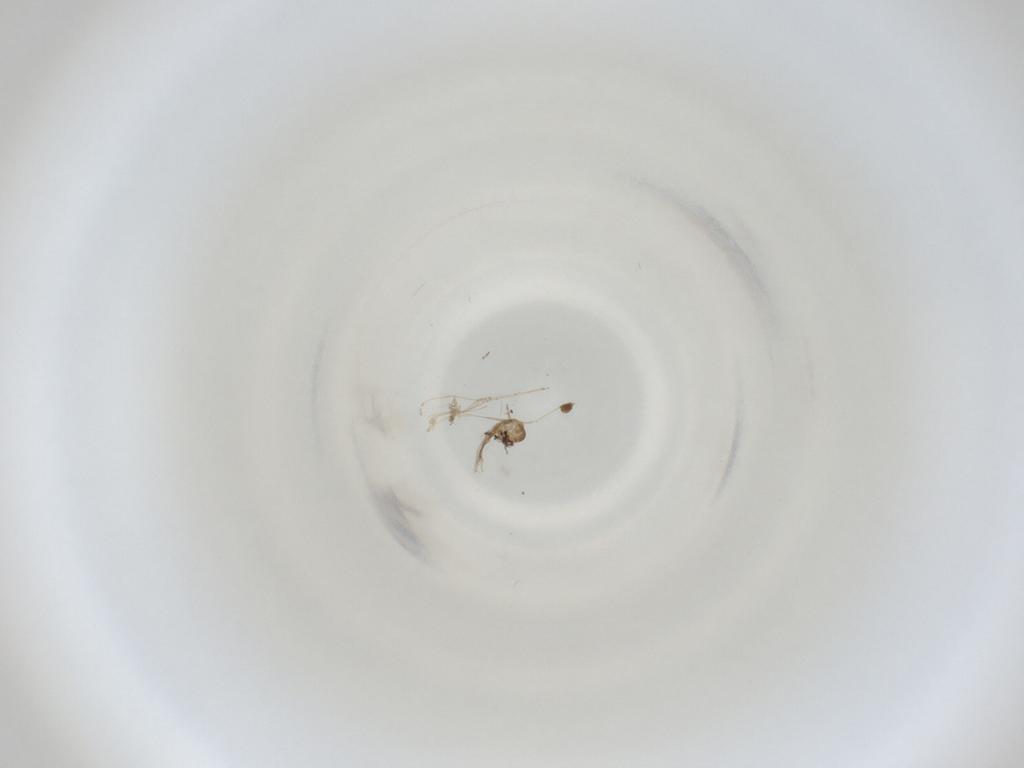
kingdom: Animalia
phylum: Arthropoda
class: Insecta
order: Diptera
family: Cecidomyiidae
